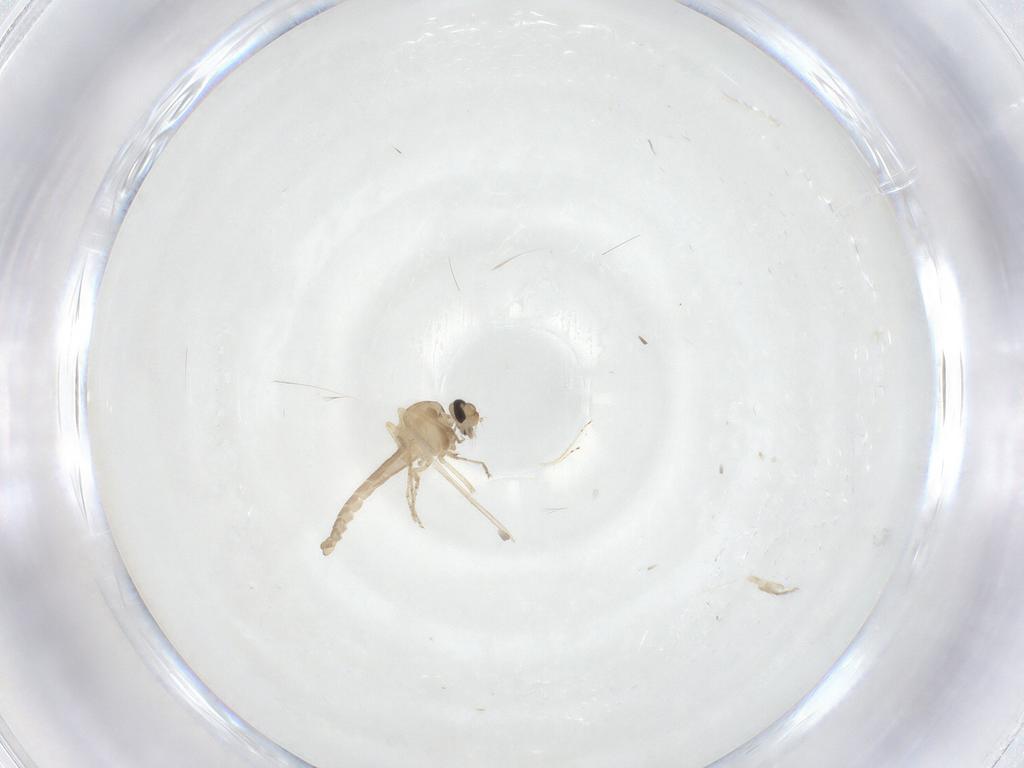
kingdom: Animalia
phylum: Arthropoda
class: Insecta
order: Diptera
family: Ceratopogonidae
